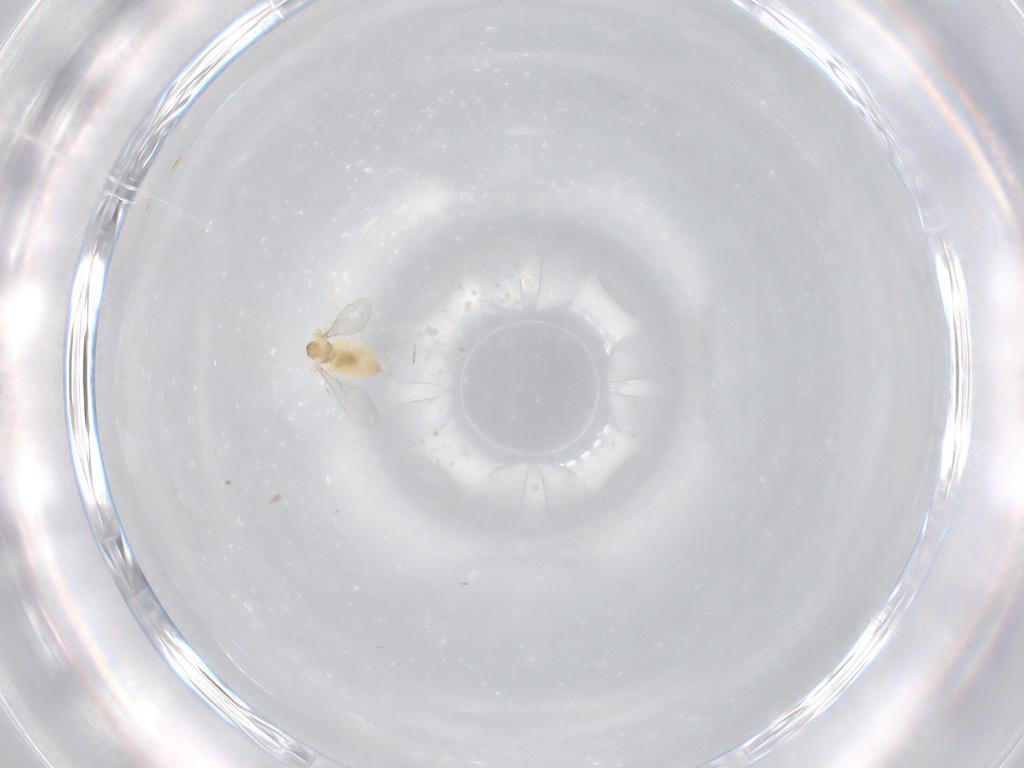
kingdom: Animalia
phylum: Arthropoda
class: Insecta
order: Diptera
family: Cecidomyiidae
